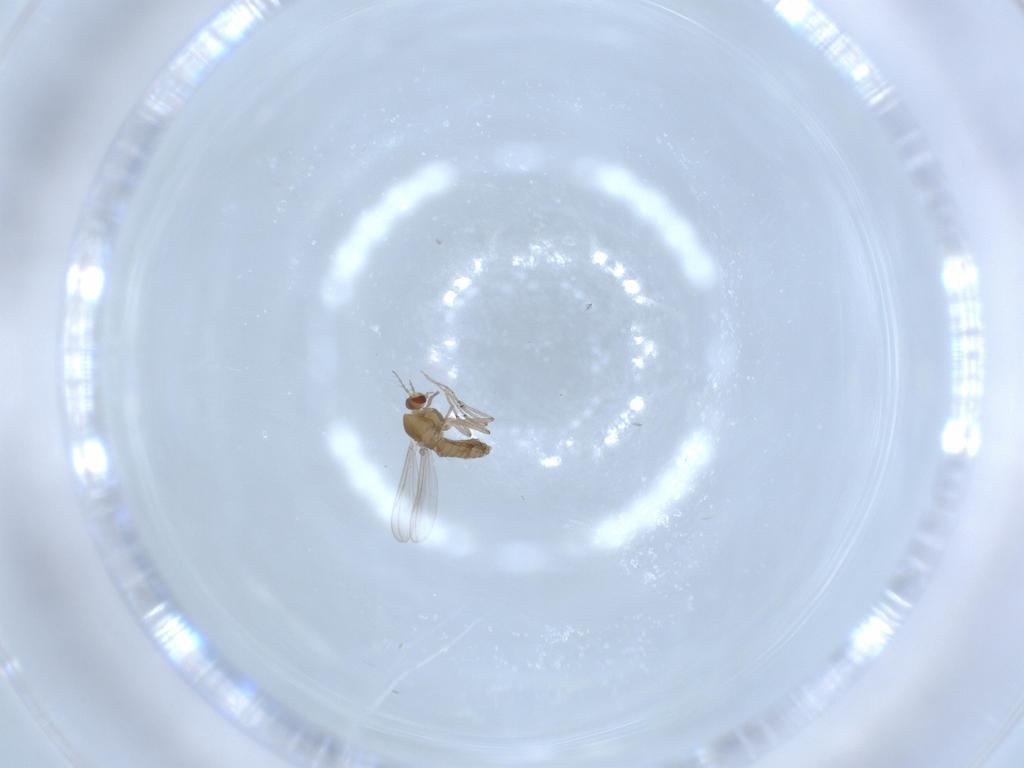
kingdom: Animalia
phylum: Arthropoda
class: Insecta
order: Diptera
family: Chironomidae
